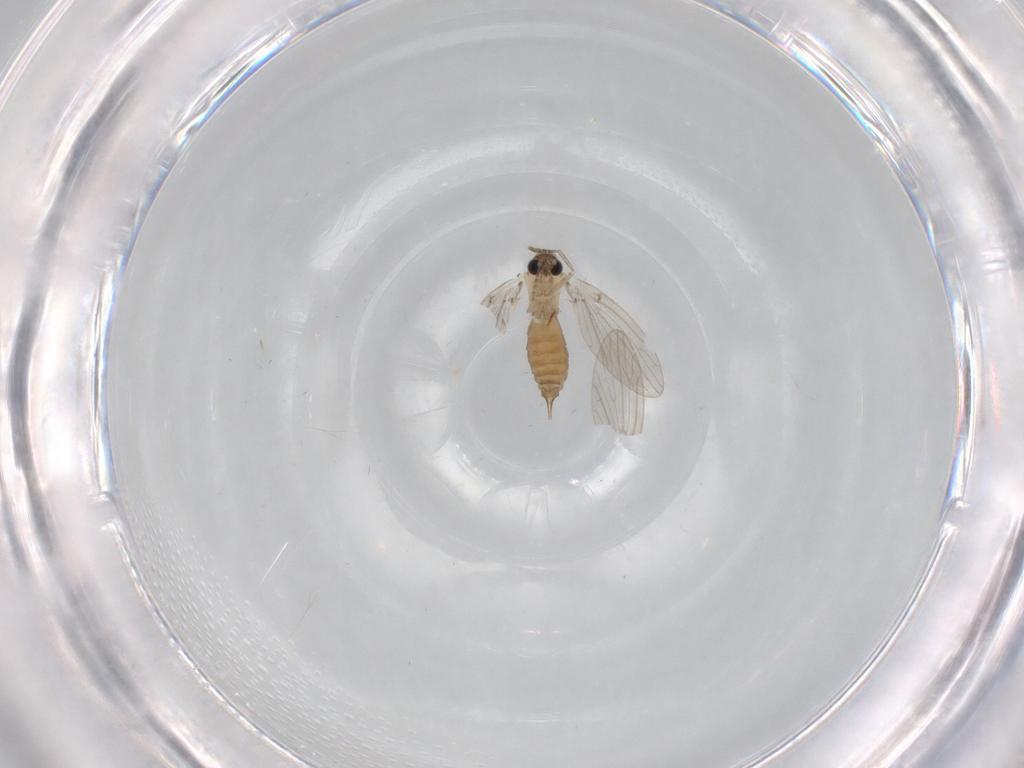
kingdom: Animalia
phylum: Arthropoda
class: Insecta
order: Diptera
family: Psychodidae
